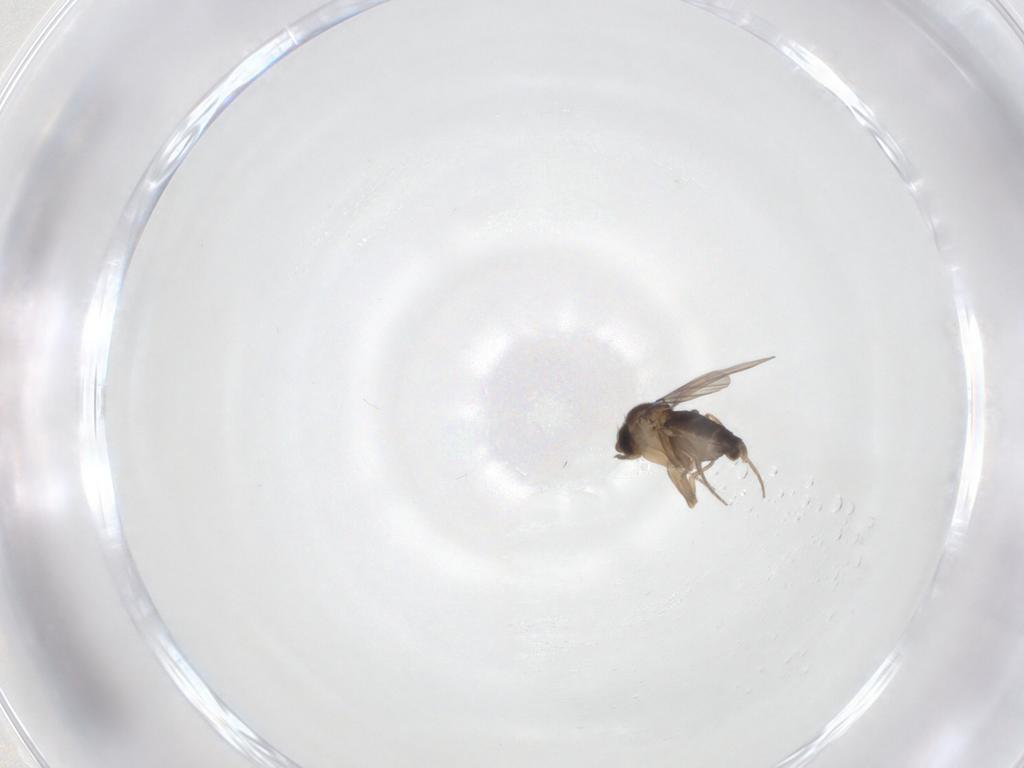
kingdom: Animalia
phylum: Arthropoda
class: Insecta
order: Diptera
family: Phoridae
